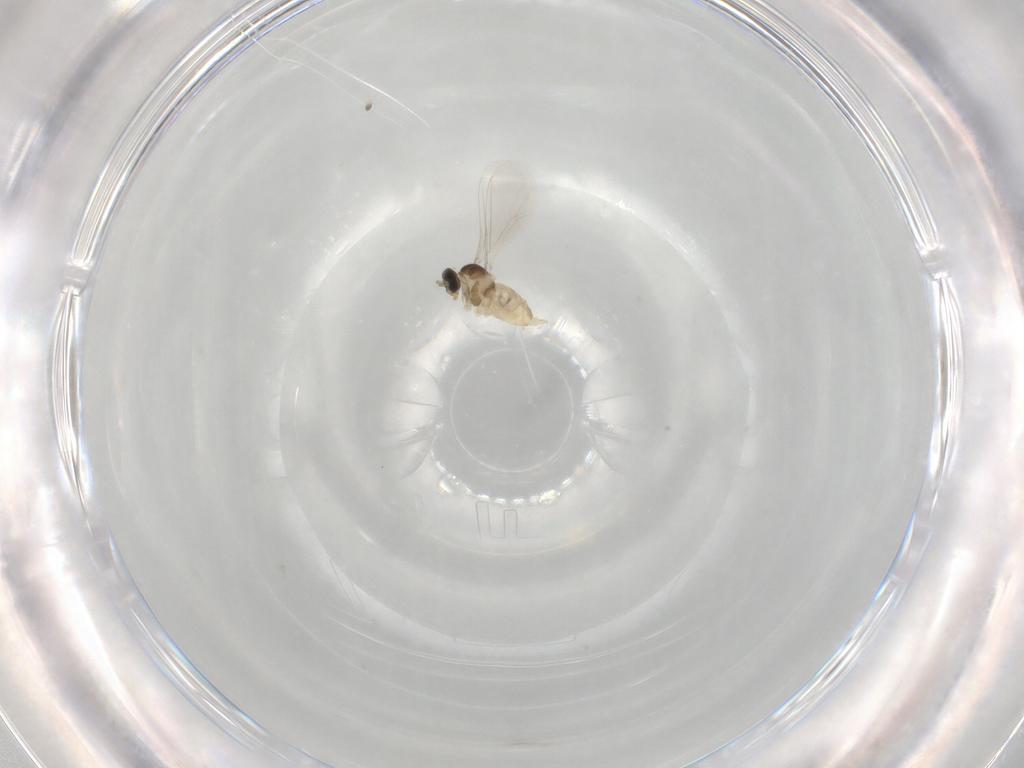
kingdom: Animalia
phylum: Arthropoda
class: Insecta
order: Diptera
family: Cecidomyiidae
